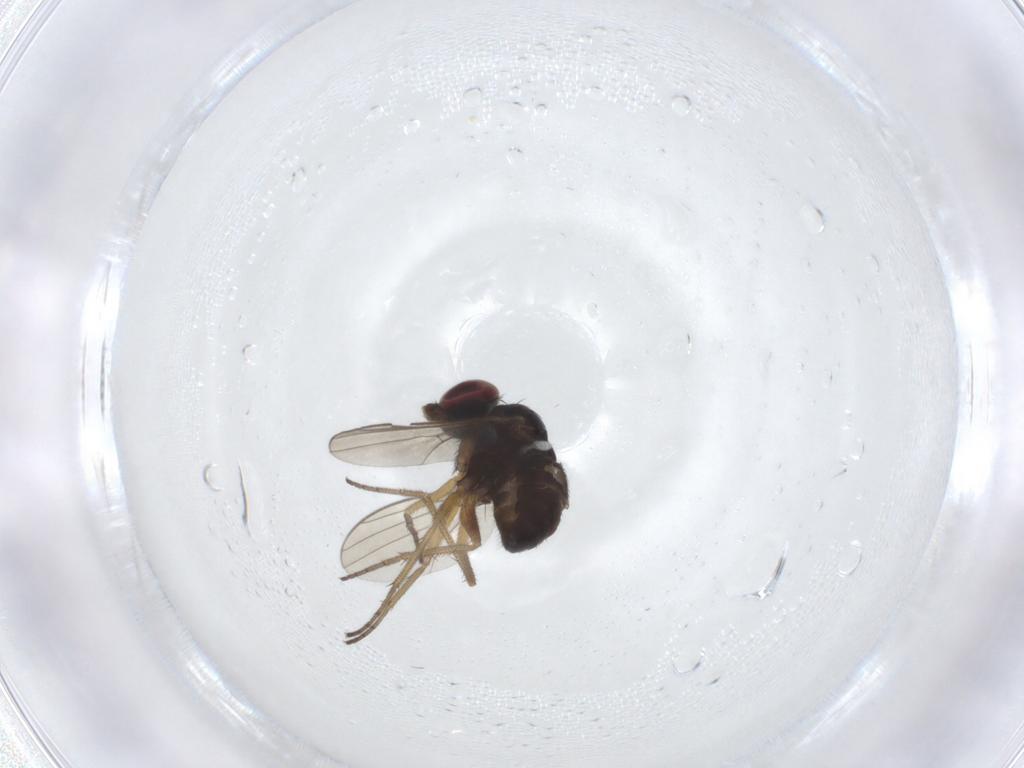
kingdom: Animalia
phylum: Arthropoda
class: Insecta
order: Diptera
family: Dolichopodidae
